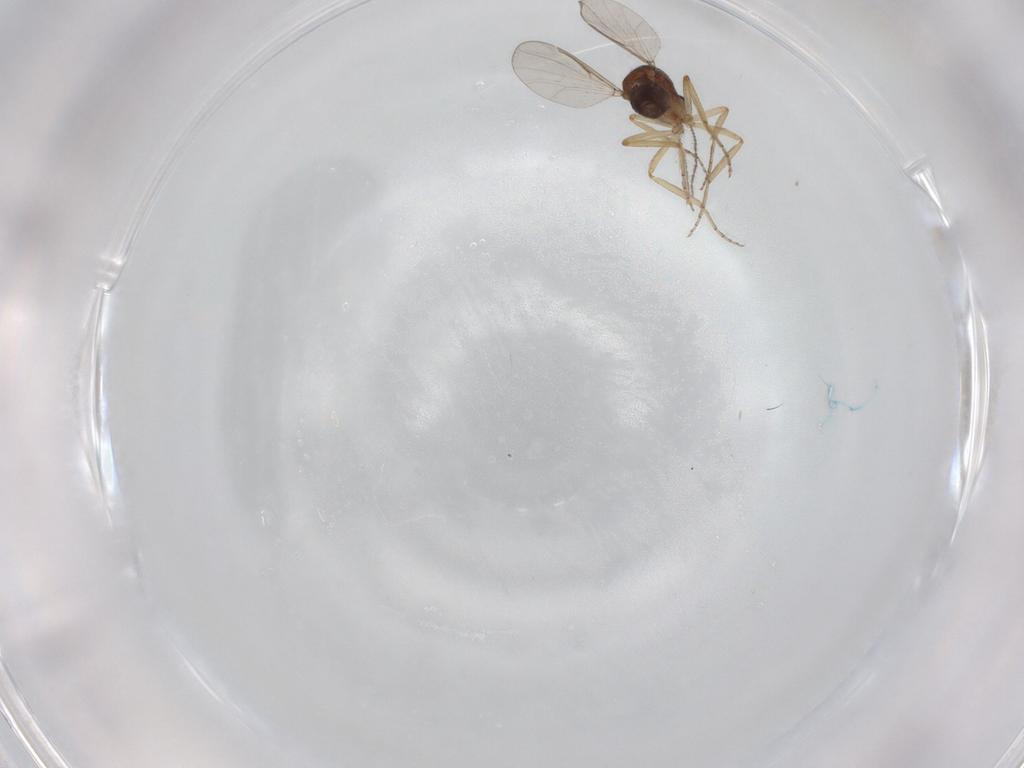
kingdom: Animalia
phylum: Arthropoda
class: Insecta
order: Diptera
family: Ceratopogonidae
